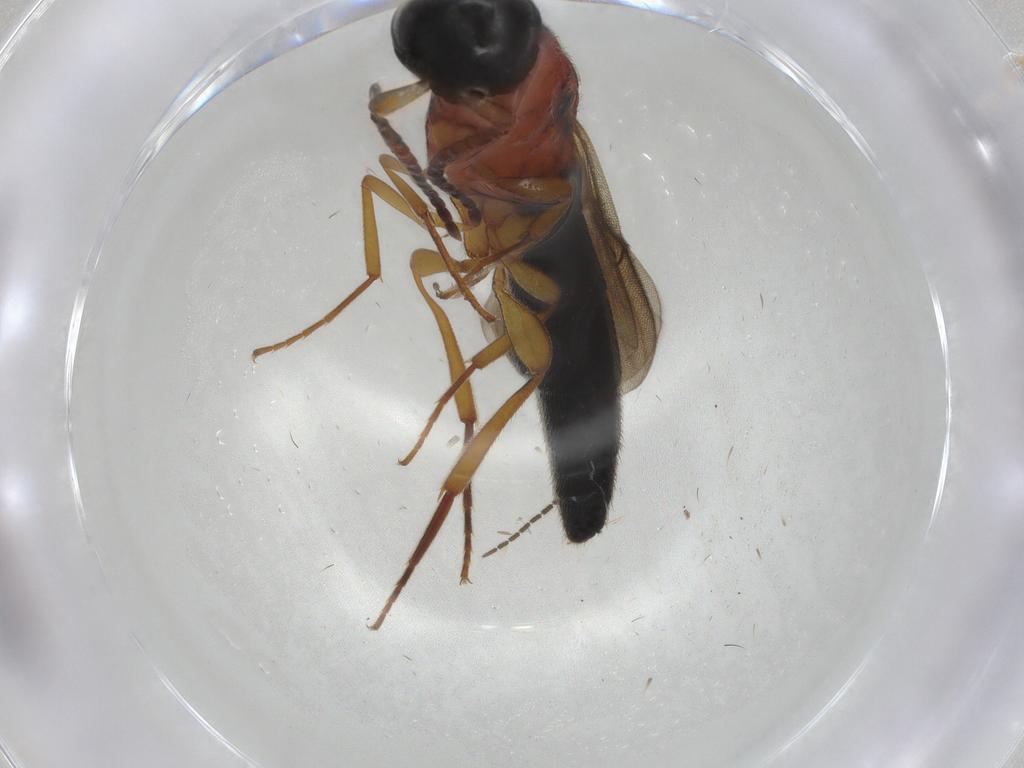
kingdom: Animalia
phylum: Arthropoda
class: Insecta
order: Diptera
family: Sciaridae
